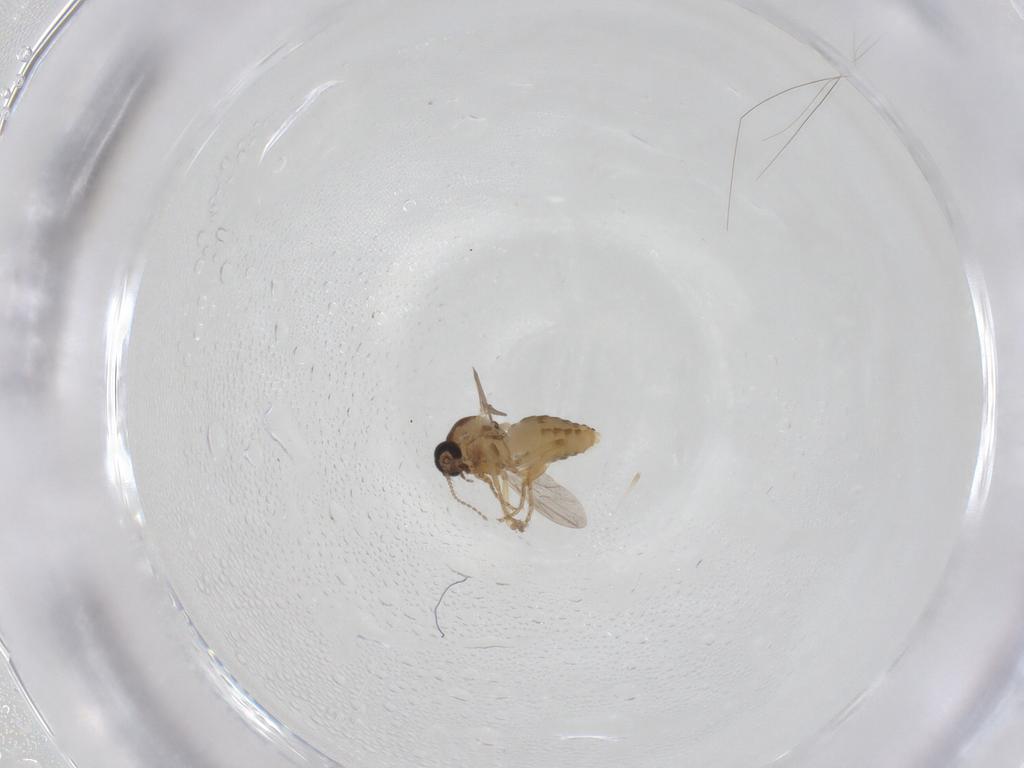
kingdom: Animalia
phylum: Arthropoda
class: Insecta
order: Diptera
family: Ceratopogonidae
